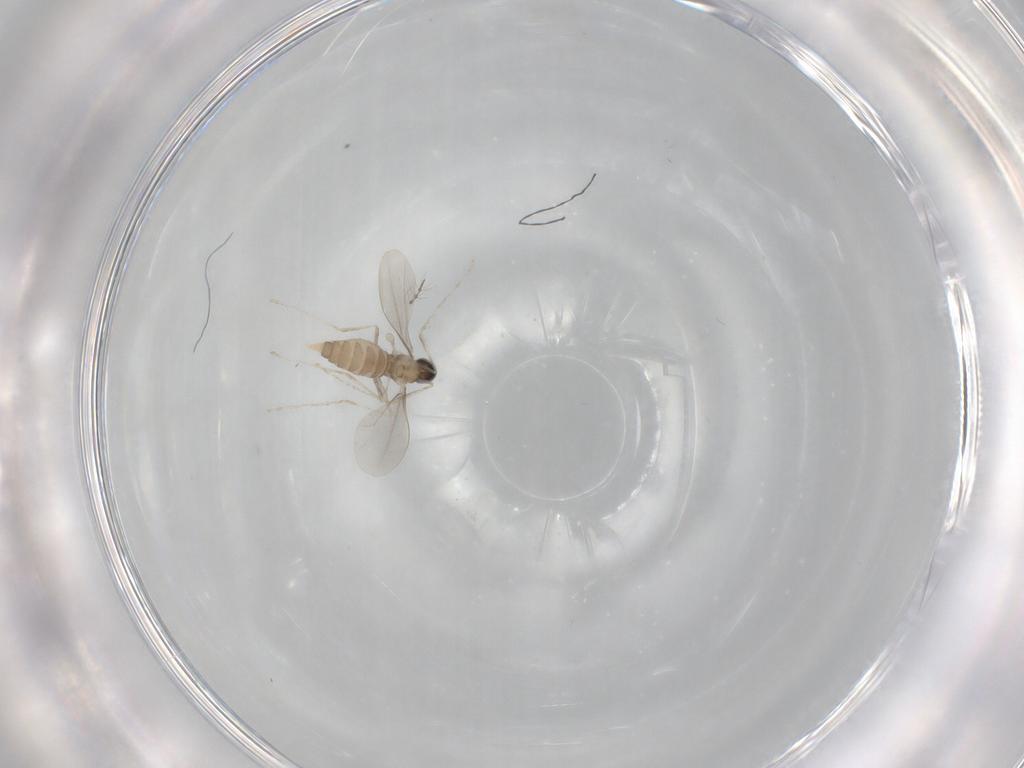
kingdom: Animalia
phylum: Arthropoda
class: Insecta
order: Diptera
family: Cecidomyiidae
